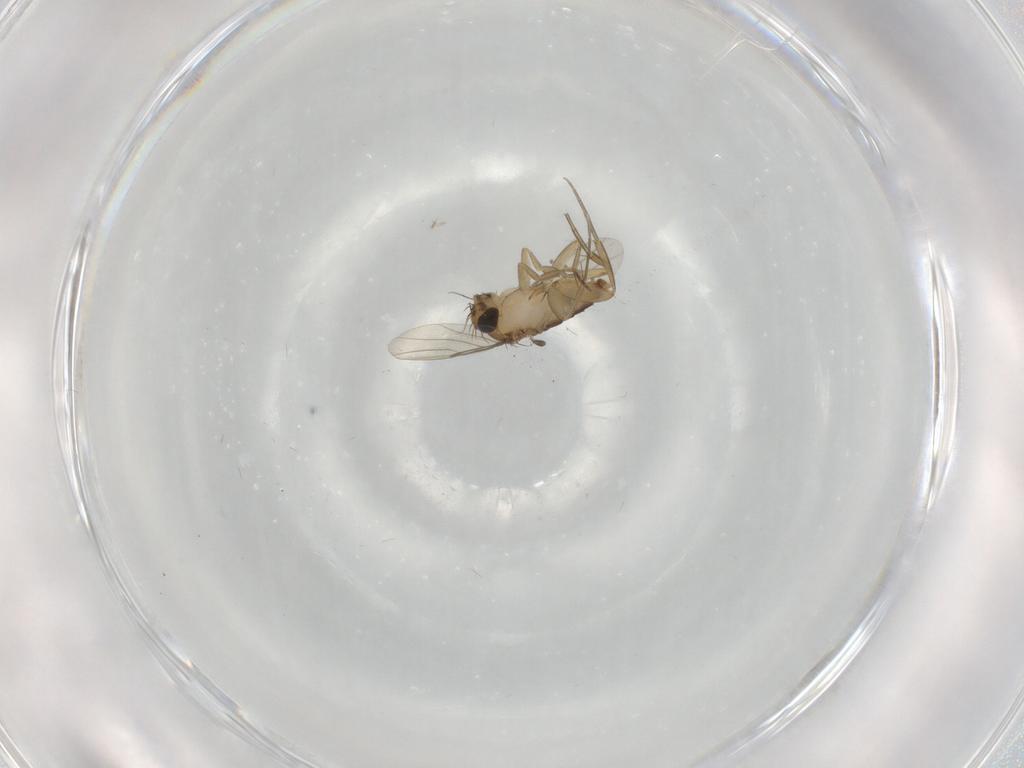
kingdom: Animalia
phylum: Arthropoda
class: Insecta
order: Diptera
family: Phoridae
